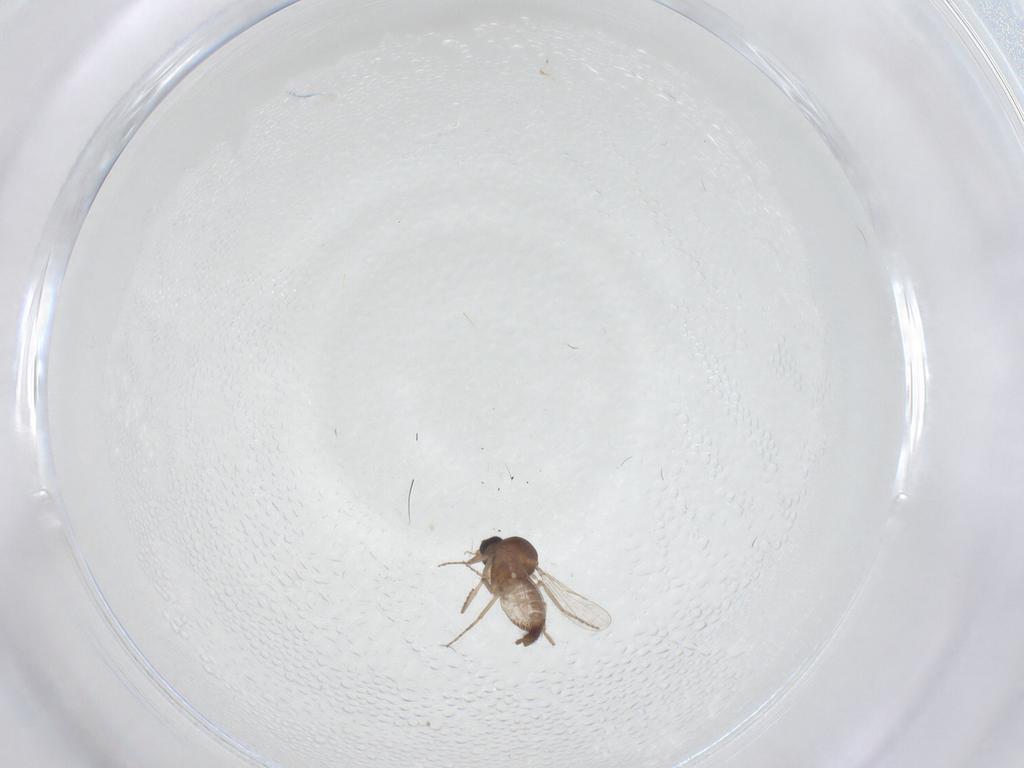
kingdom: Animalia
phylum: Arthropoda
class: Insecta
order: Diptera
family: Ceratopogonidae
